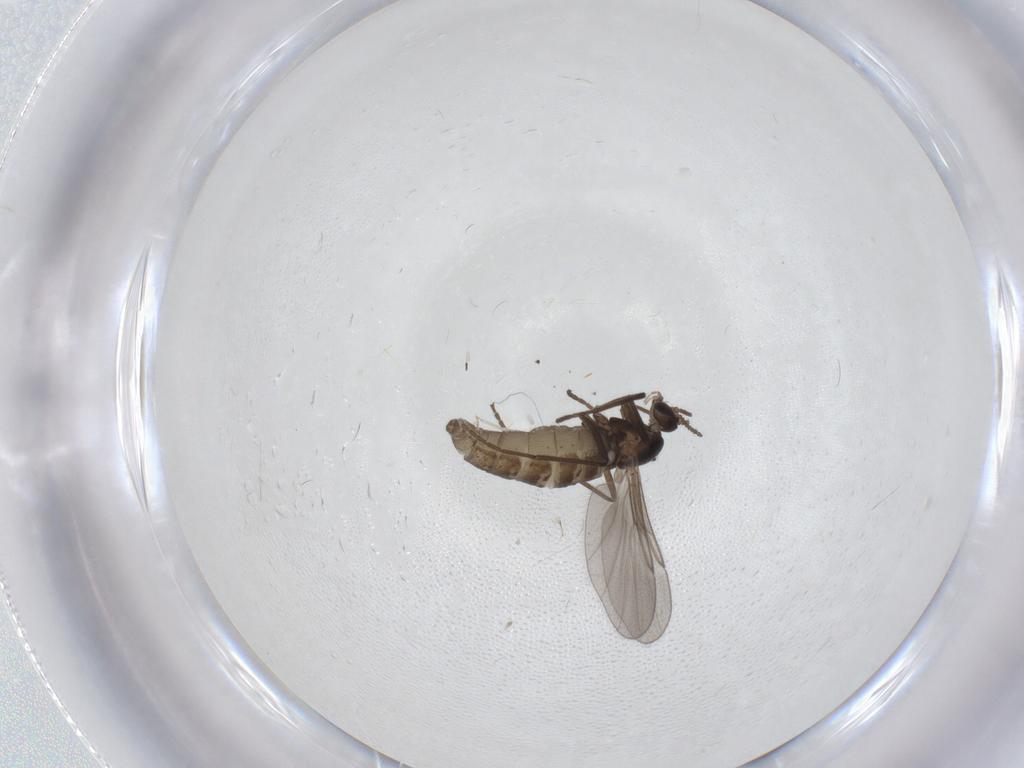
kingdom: Animalia
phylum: Arthropoda
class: Insecta
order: Diptera
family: Cecidomyiidae
